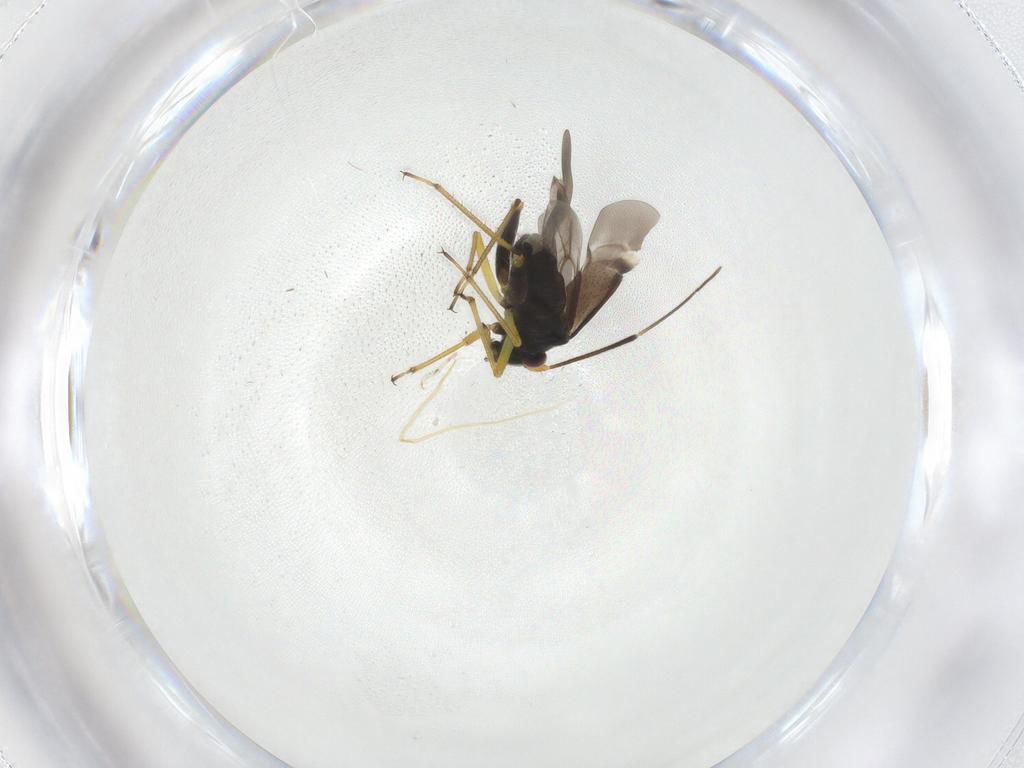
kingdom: Animalia
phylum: Arthropoda
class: Insecta
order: Hemiptera
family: Miridae
